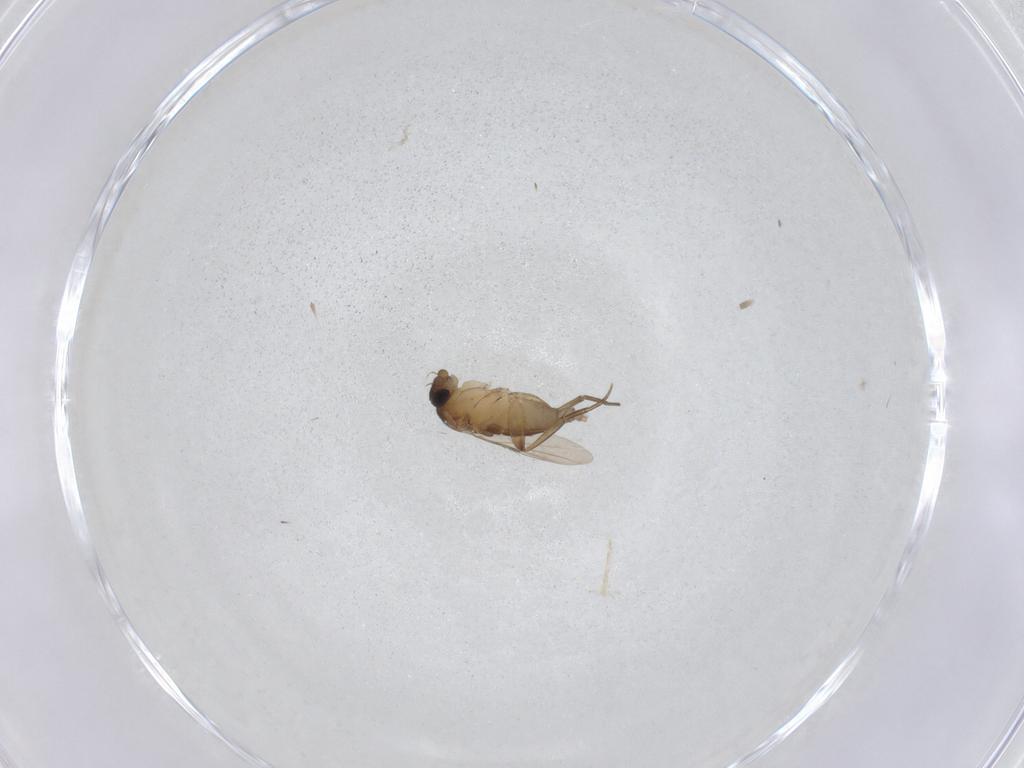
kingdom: Animalia
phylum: Arthropoda
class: Insecta
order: Diptera
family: Phoridae
